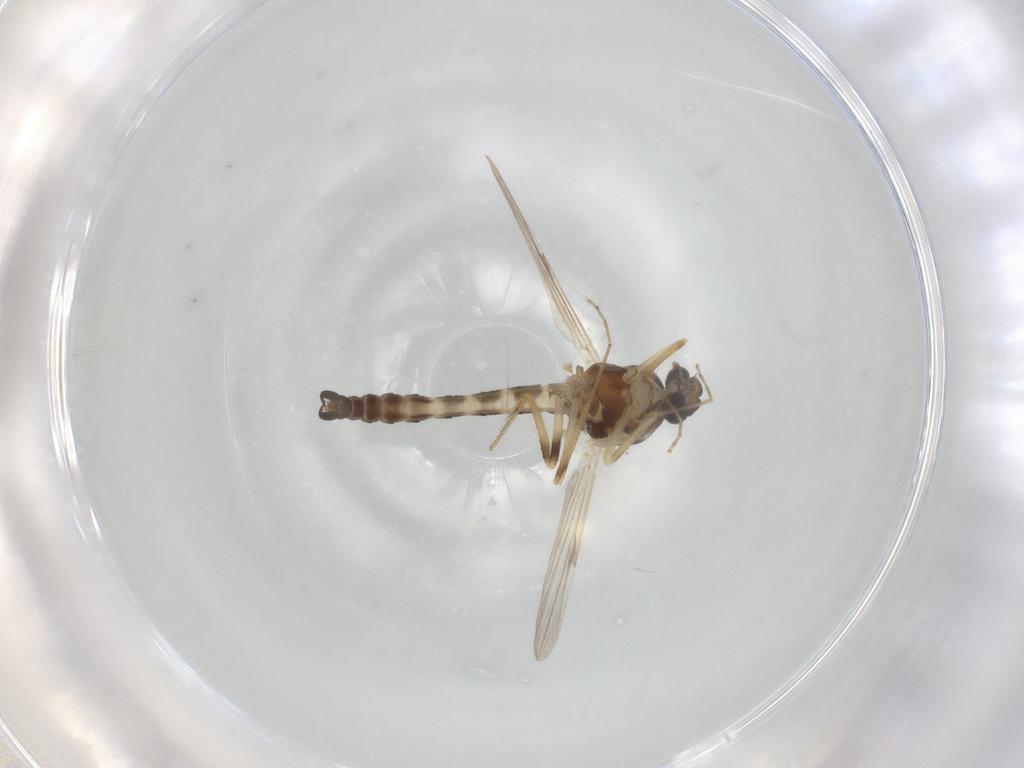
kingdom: Animalia
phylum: Arthropoda
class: Insecta
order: Diptera
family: Ceratopogonidae
